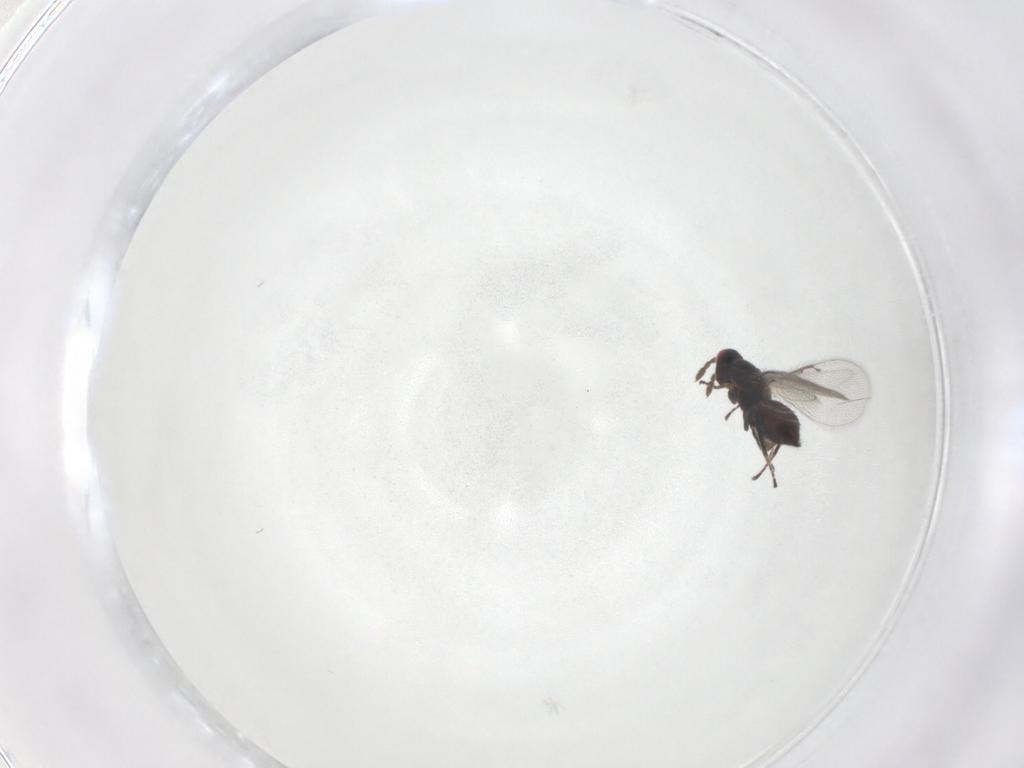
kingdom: Animalia
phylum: Arthropoda
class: Insecta
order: Hymenoptera
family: Eulophidae
